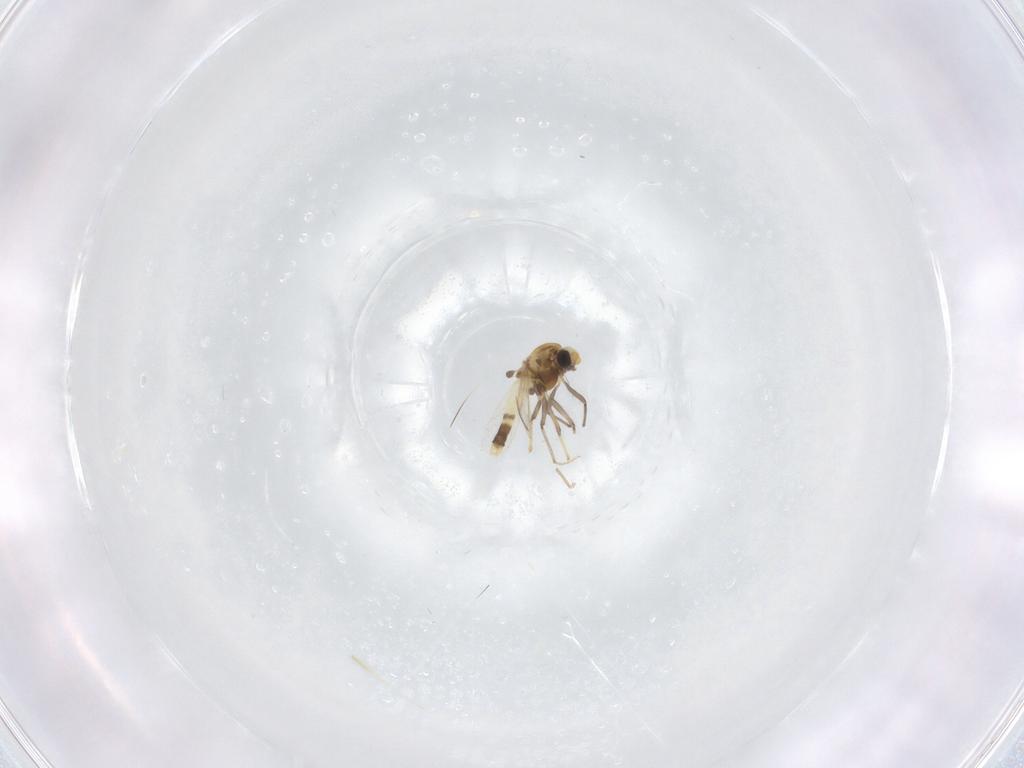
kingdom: Animalia
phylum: Arthropoda
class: Insecta
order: Diptera
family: Chironomidae
